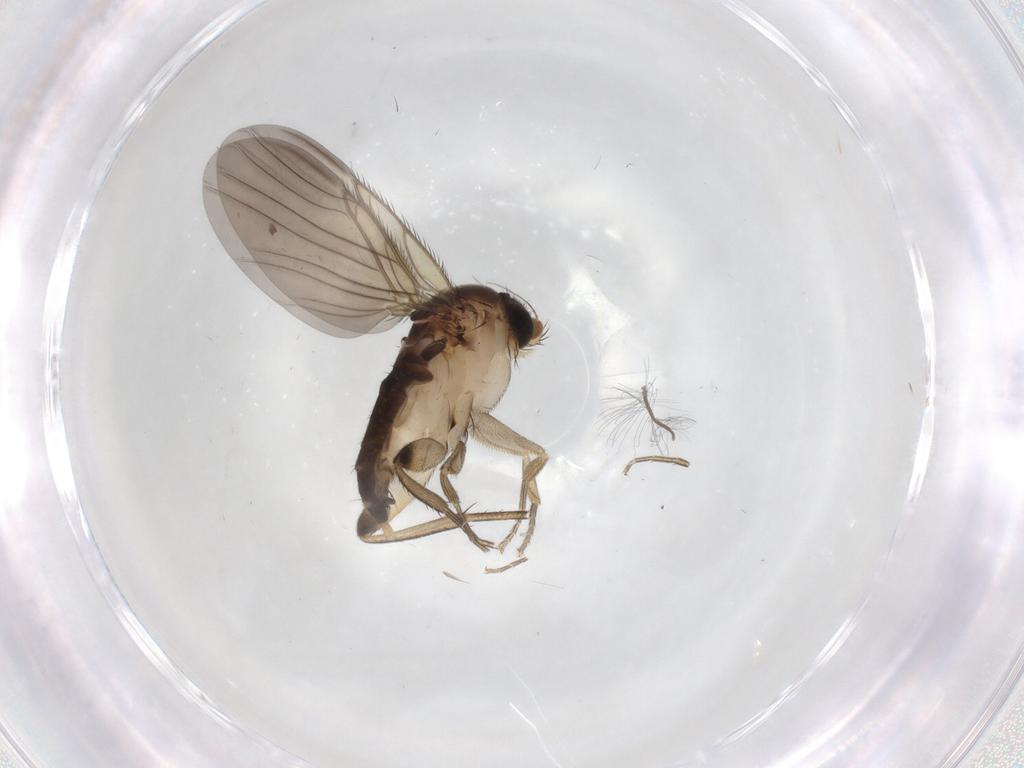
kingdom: Animalia
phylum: Arthropoda
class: Insecta
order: Diptera
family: Phoridae
